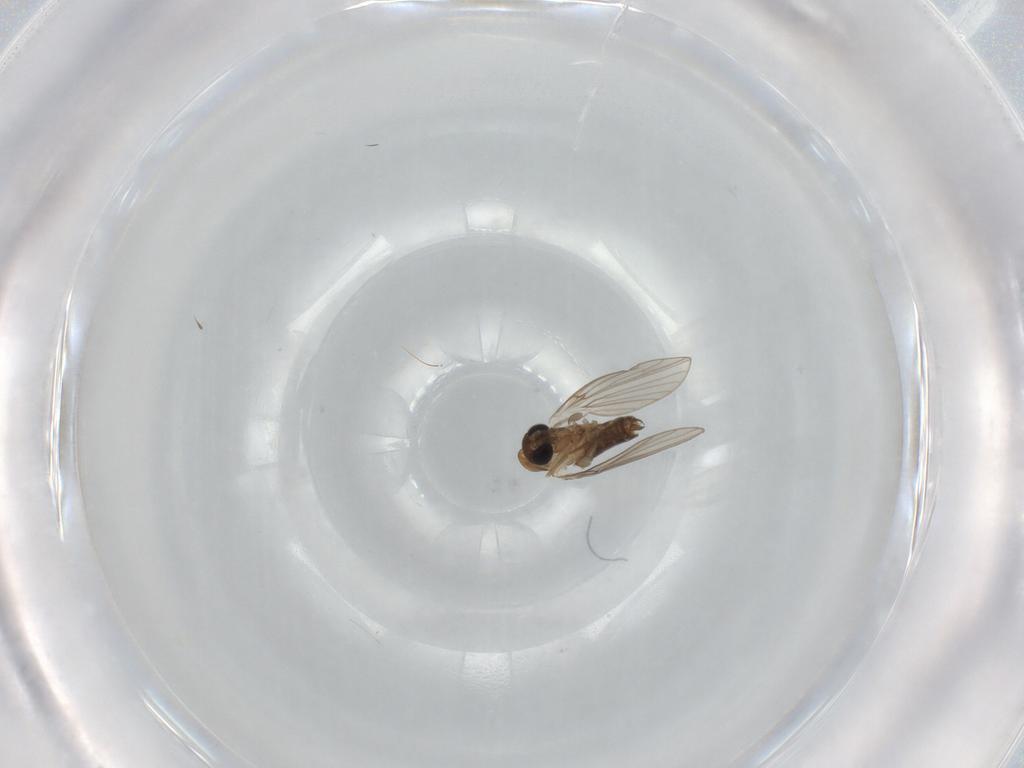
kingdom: Animalia
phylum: Arthropoda
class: Insecta
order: Diptera
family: Psychodidae
